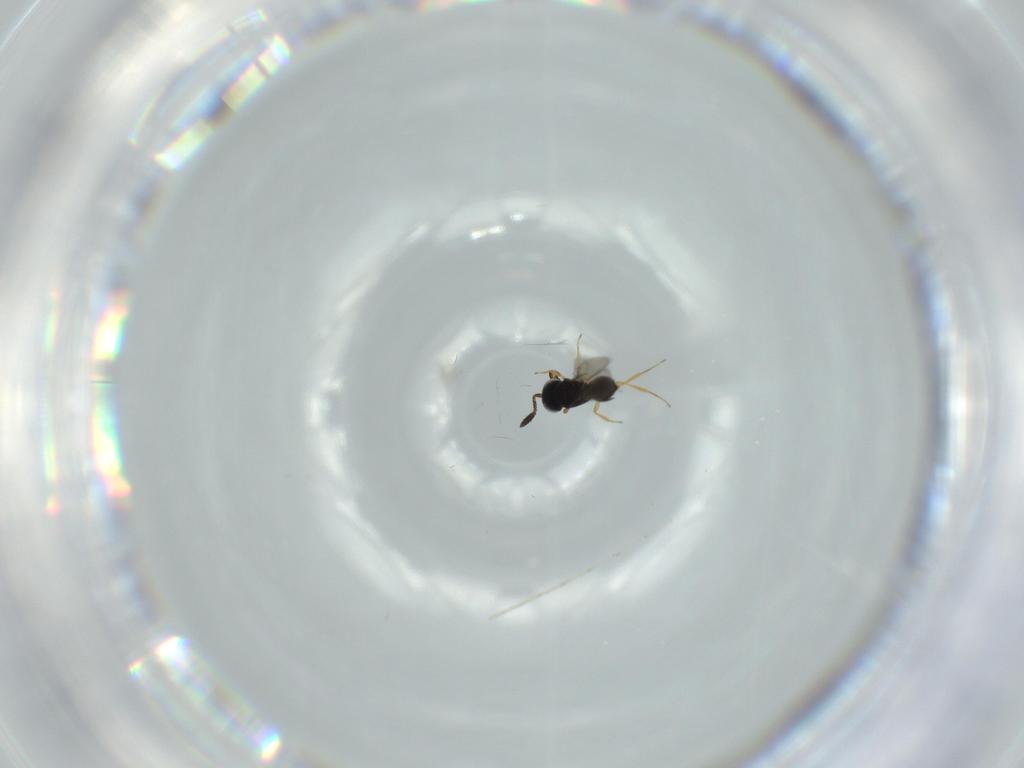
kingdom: Animalia
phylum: Arthropoda
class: Insecta
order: Hymenoptera
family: Scelionidae
